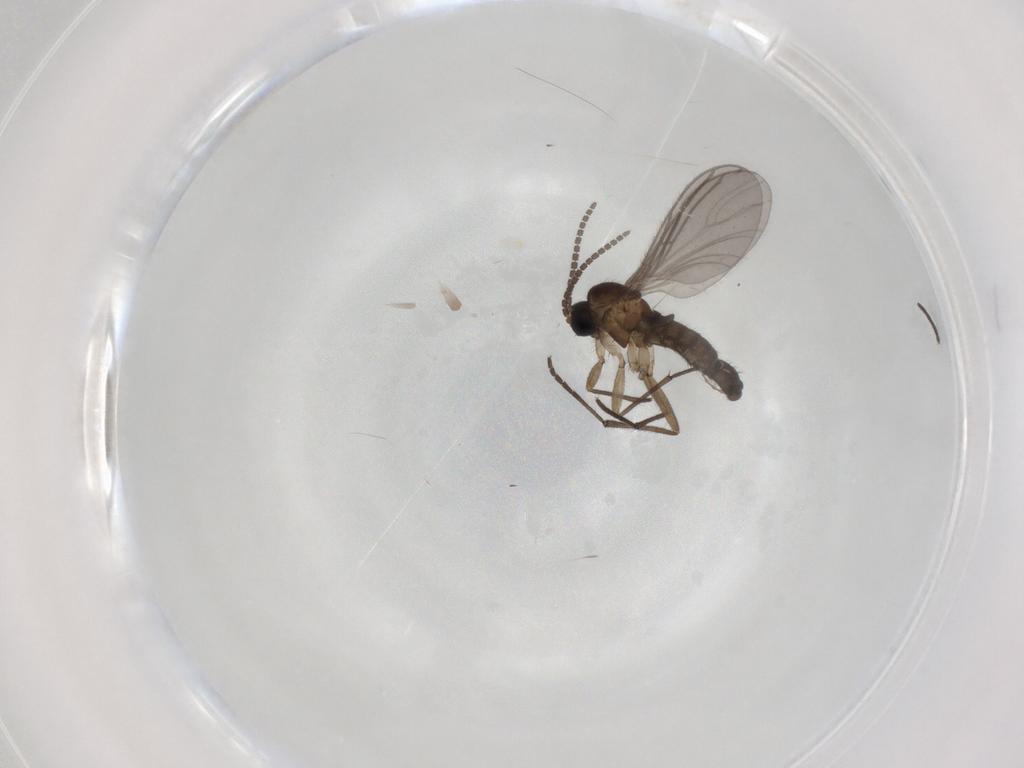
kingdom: Animalia
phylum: Arthropoda
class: Insecta
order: Diptera
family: Sciaridae
